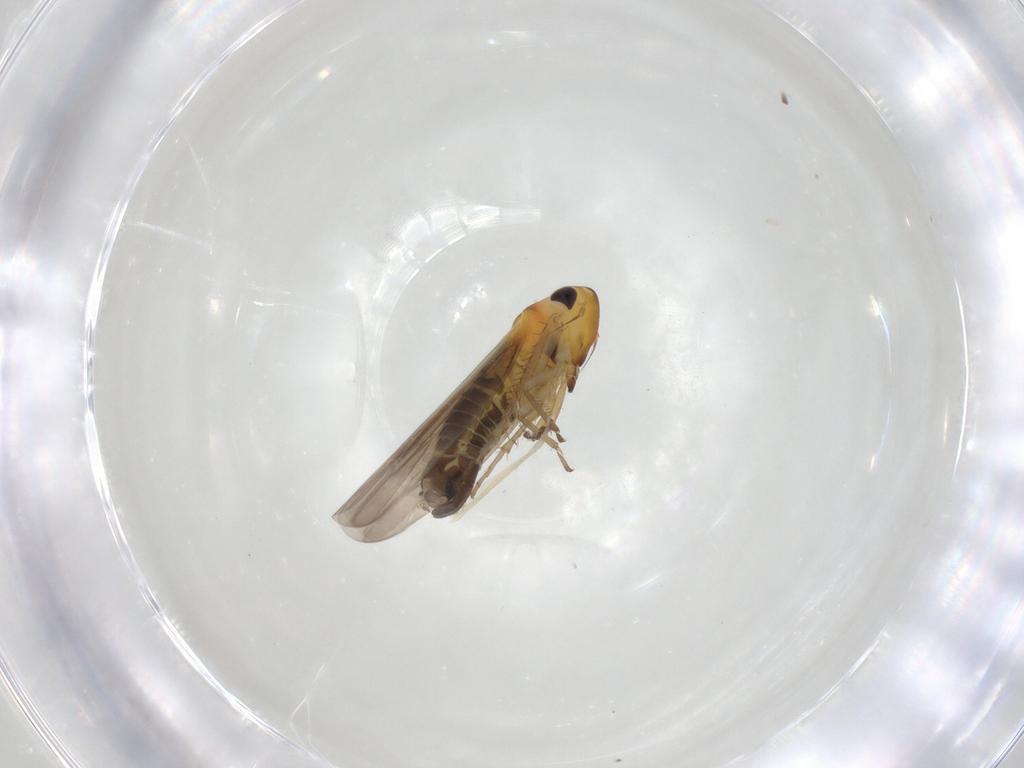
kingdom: Animalia
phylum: Arthropoda
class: Insecta
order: Hemiptera
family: Cicadellidae
